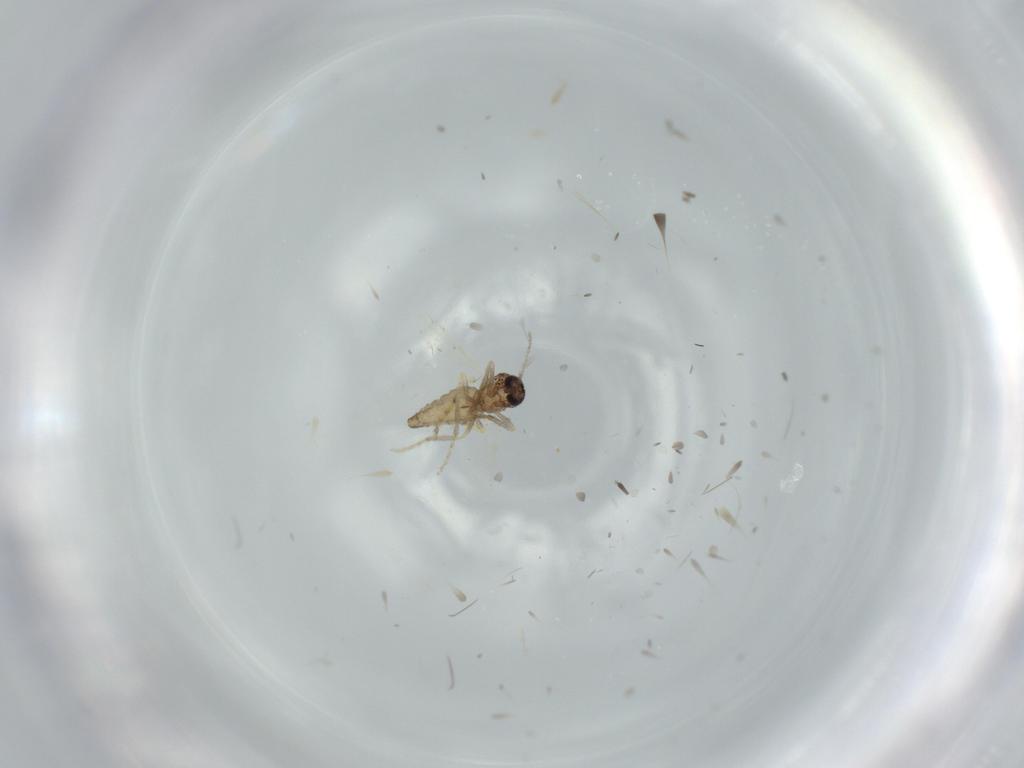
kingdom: Animalia
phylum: Arthropoda
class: Insecta
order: Diptera
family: Ceratopogonidae
